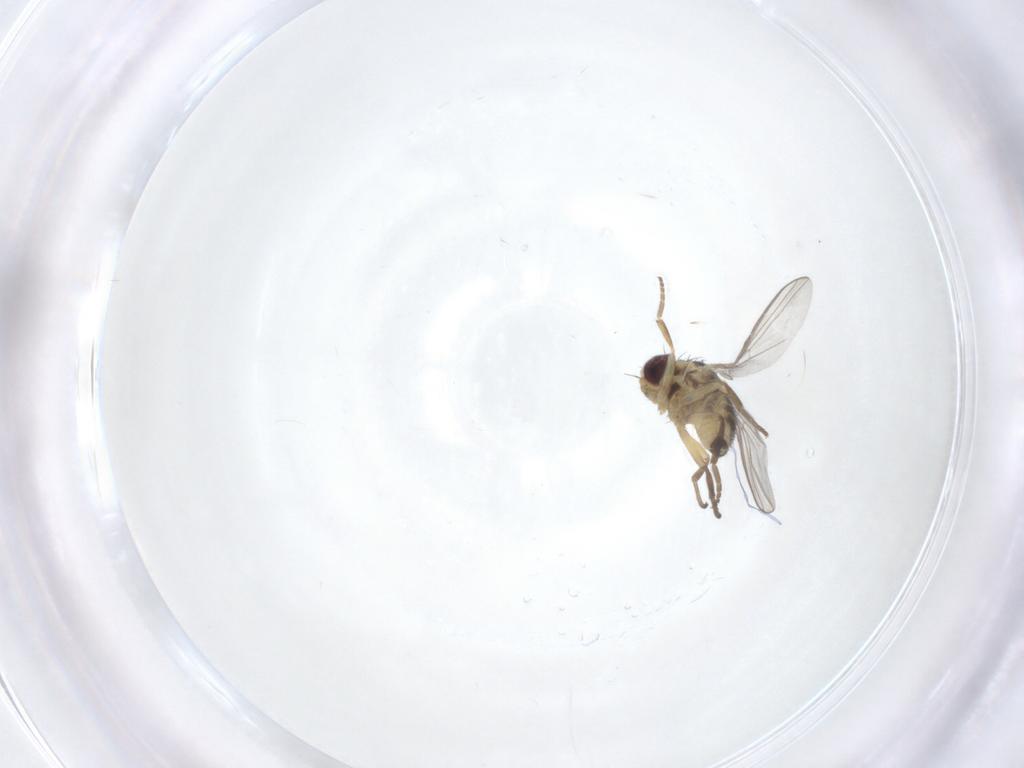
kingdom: Animalia
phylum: Arthropoda
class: Insecta
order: Diptera
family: Agromyzidae
